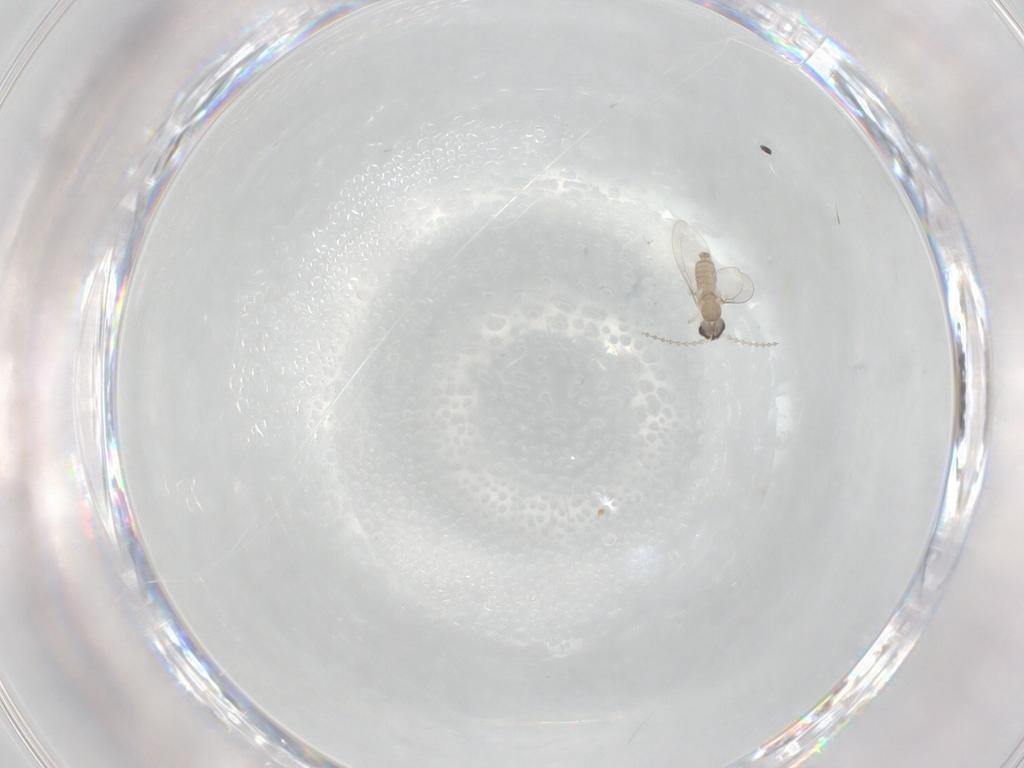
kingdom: Animalia
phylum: Arthropoda
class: Insecta
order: Diptera
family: Cecidomyiidae
